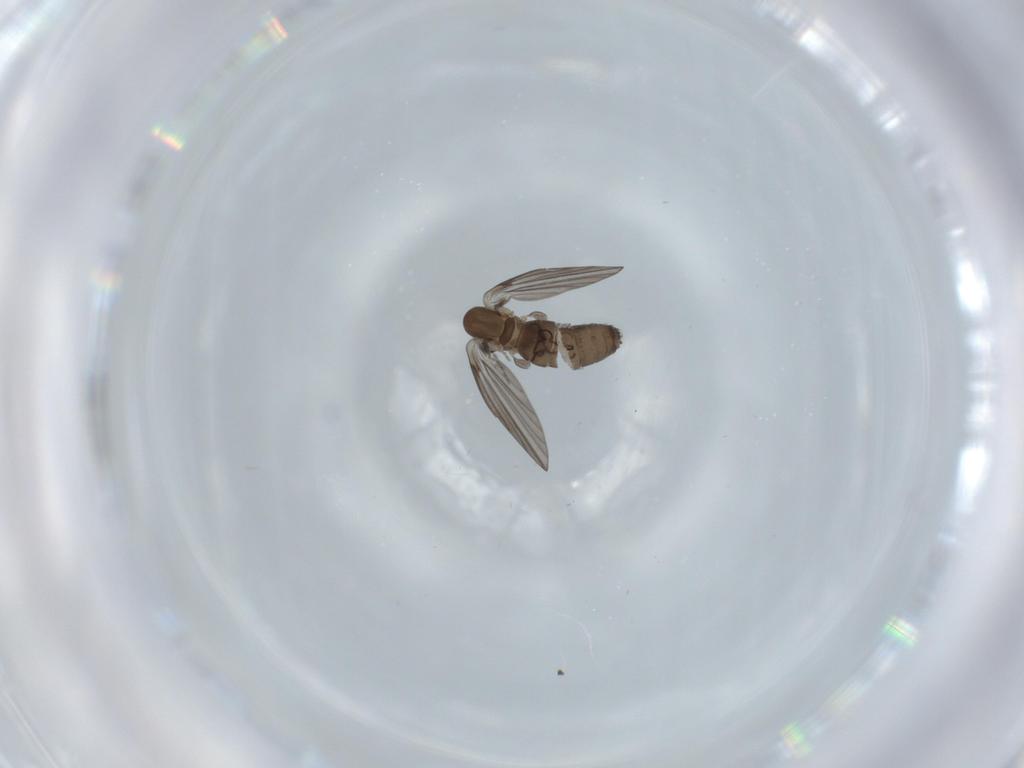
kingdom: Animalia
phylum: Arthropoda
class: Insecta
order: Diptera
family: Psychodidae
